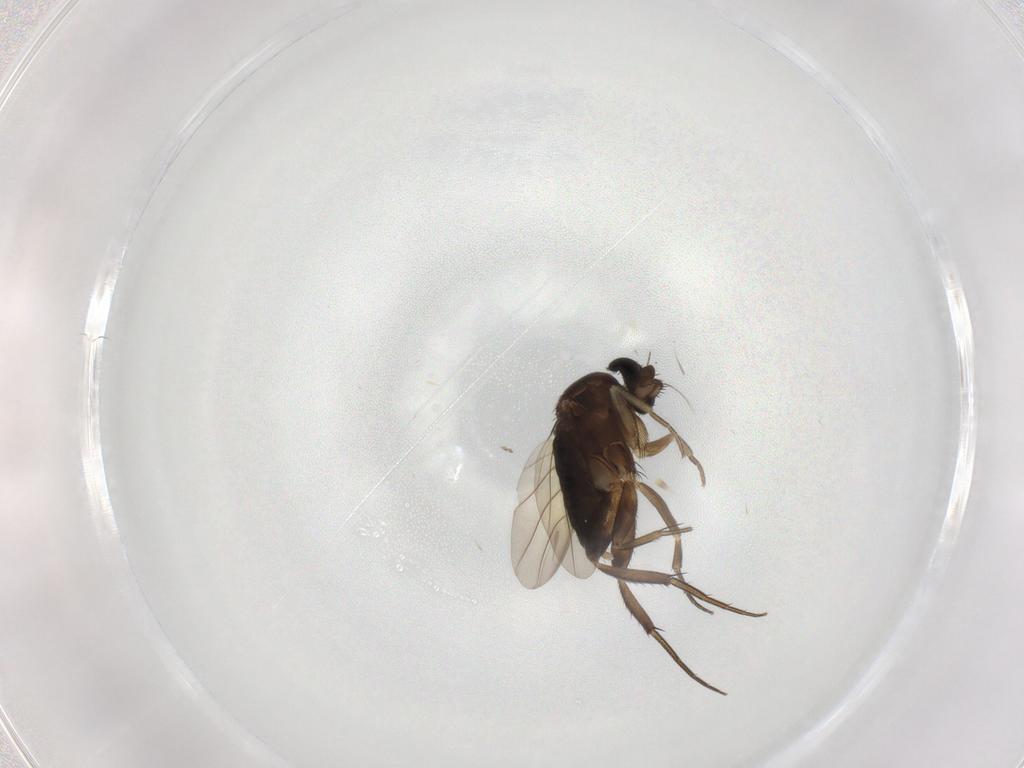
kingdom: Animalia
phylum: Arthropoda
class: Insecta
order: Diptera
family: Phoridae
